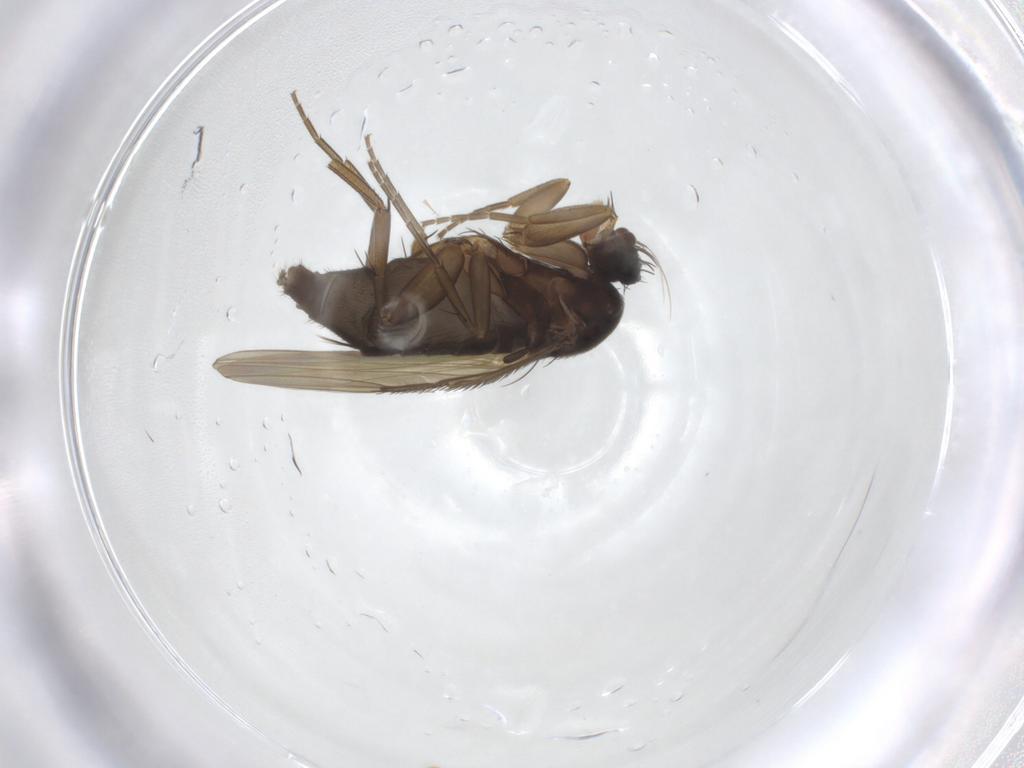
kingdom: Animalia
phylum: Arthropoda
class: Insecta
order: Diptera
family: Phoridae
